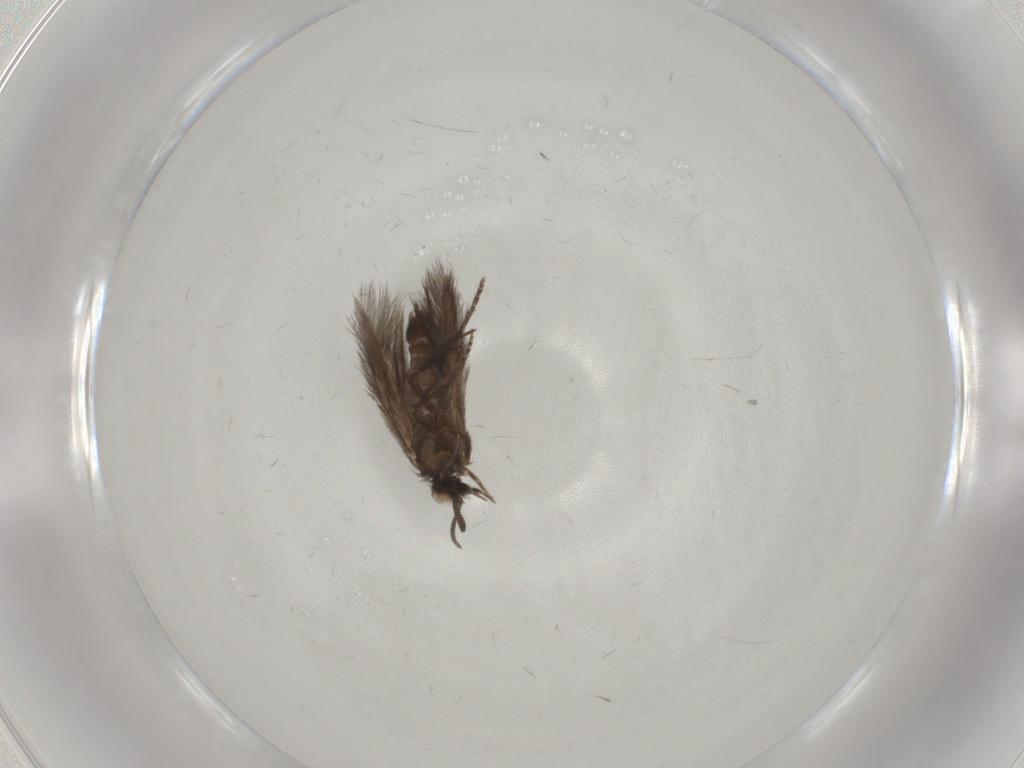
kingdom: Animalia
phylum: Arthropoda
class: Insecta
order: Trichoptera
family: Hydroptilidae
